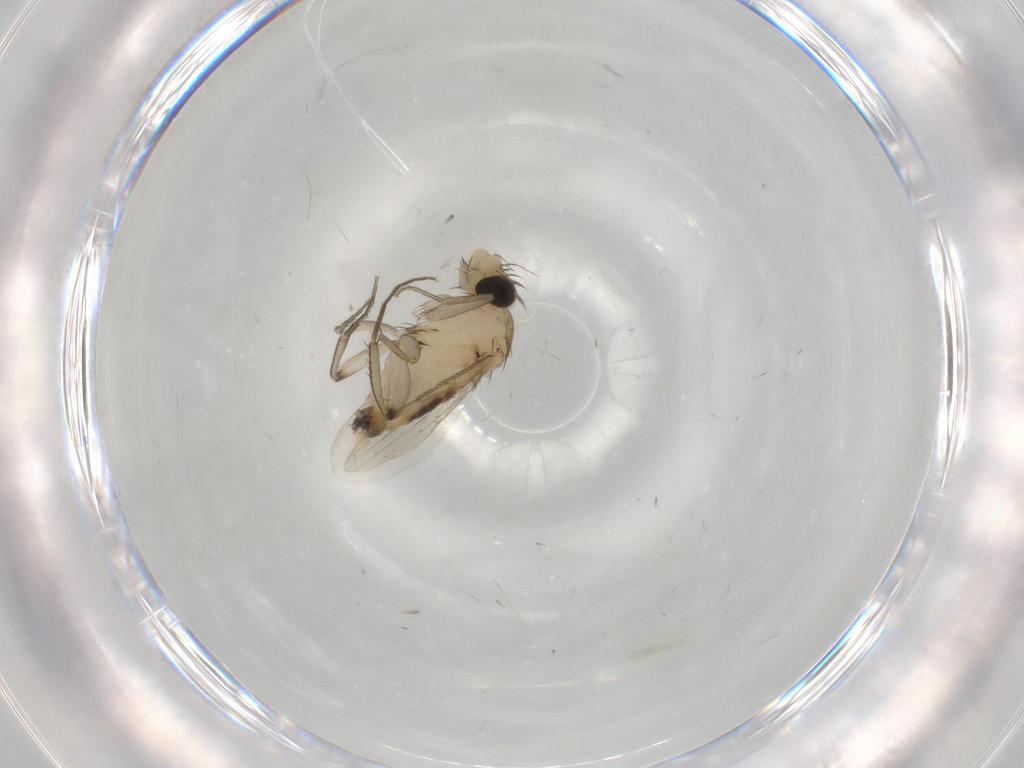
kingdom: Animalia
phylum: Arthropoda
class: Insecta
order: Diptera
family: Phoridae
